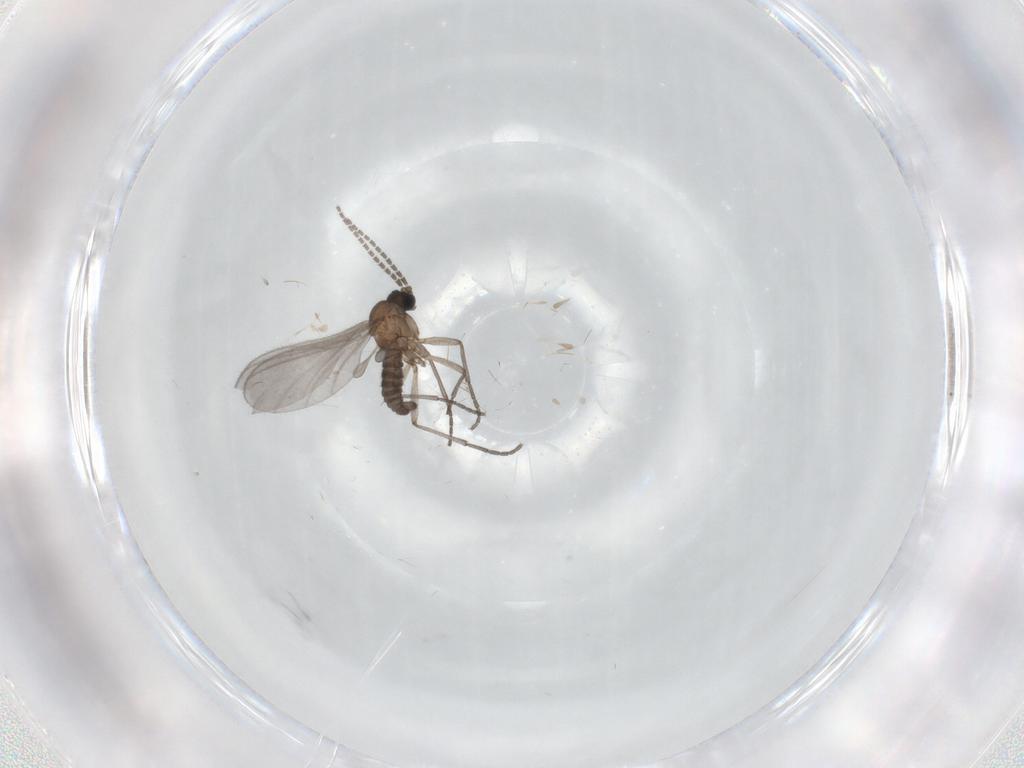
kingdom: Animalia
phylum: Arthropoda
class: Insecta
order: Diptera
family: Sciaridae
